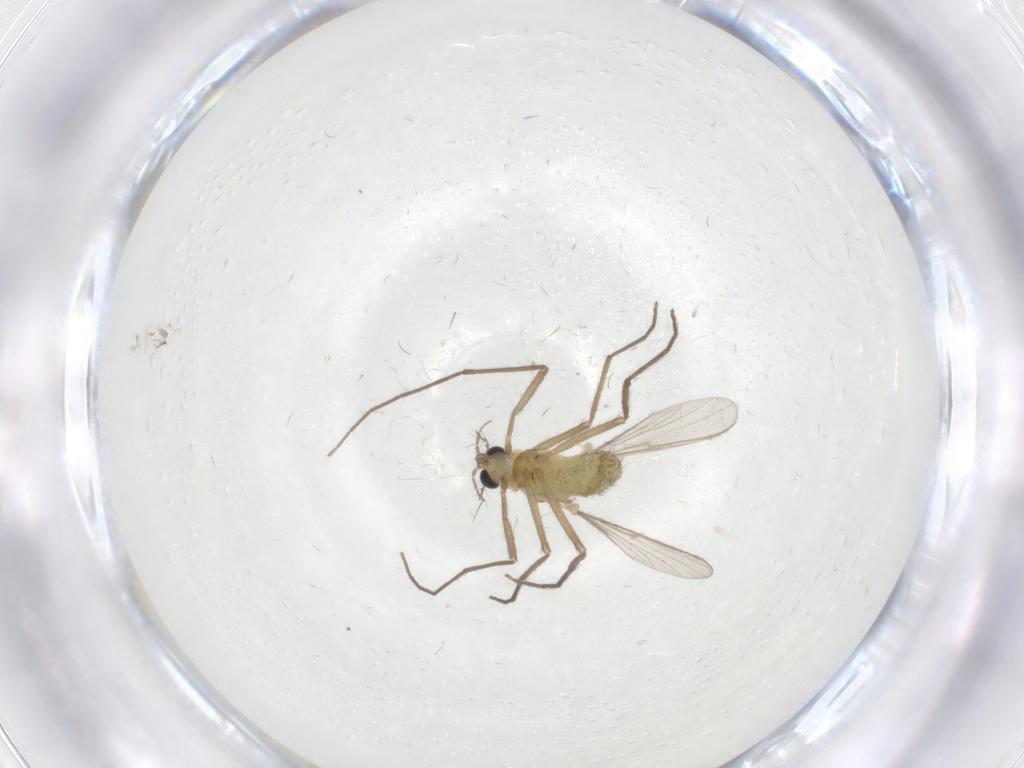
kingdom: Animalia
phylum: Arthropoda
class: Insecta
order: Diptera
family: Chironomidae
